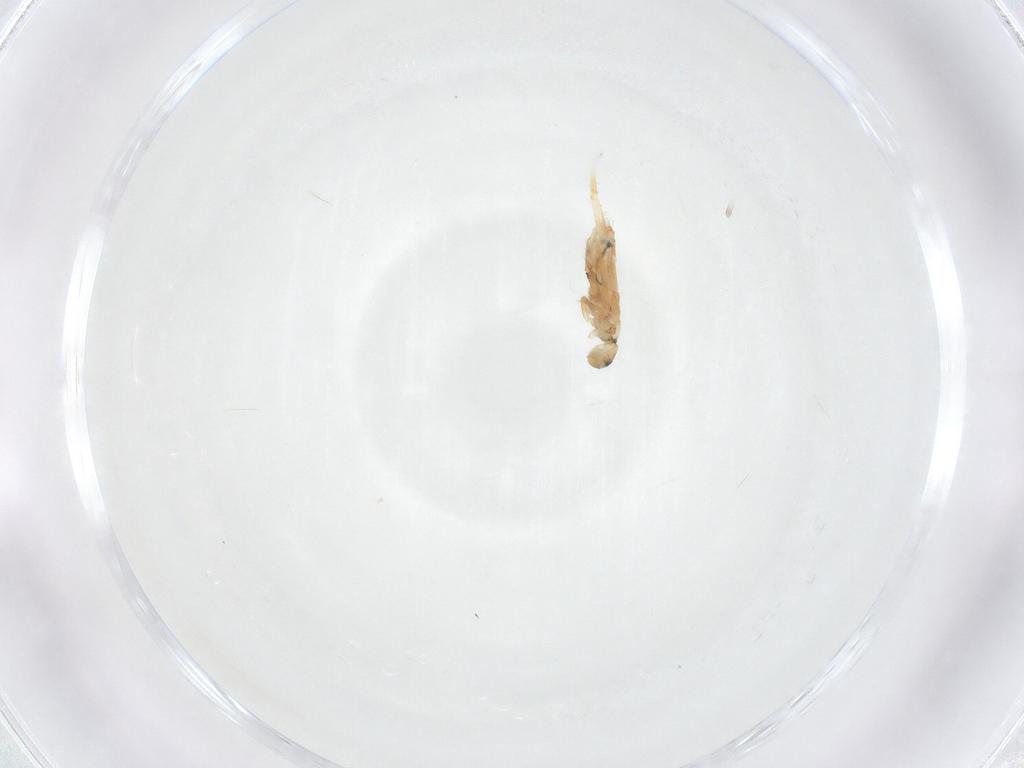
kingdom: Animalia
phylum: Arthropoda
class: Collembola
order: Entomobryomorpha
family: Entomobryidae
